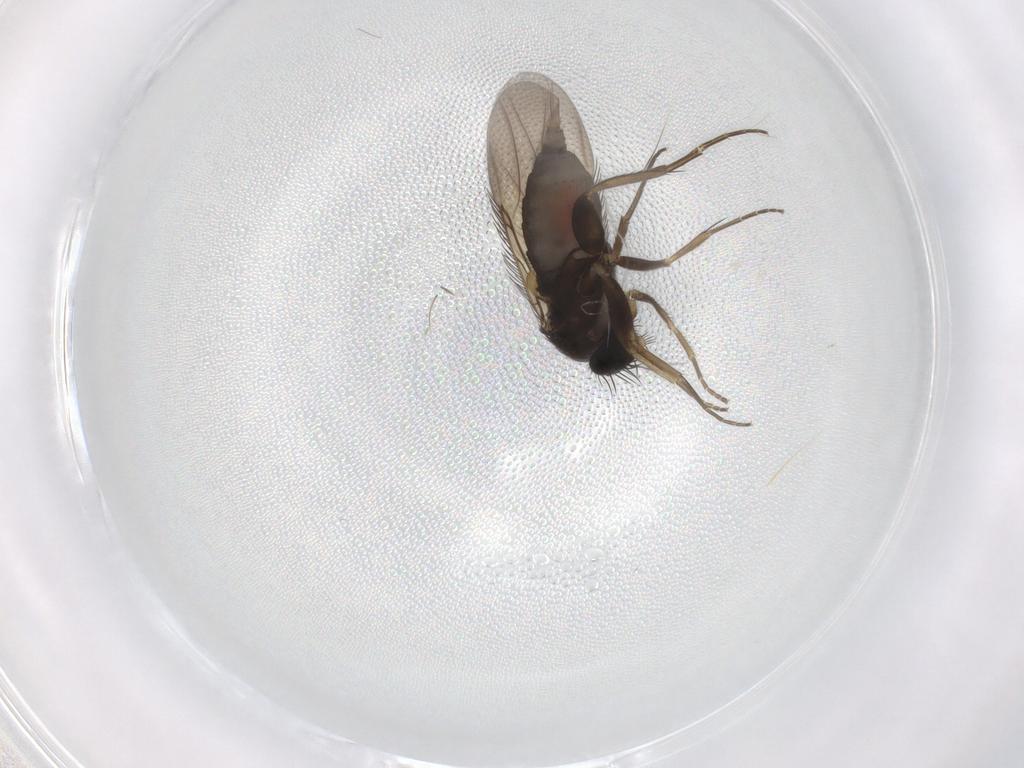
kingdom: Animalia
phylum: Arthropoda
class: Insecta
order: Diptera
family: Phoridae
